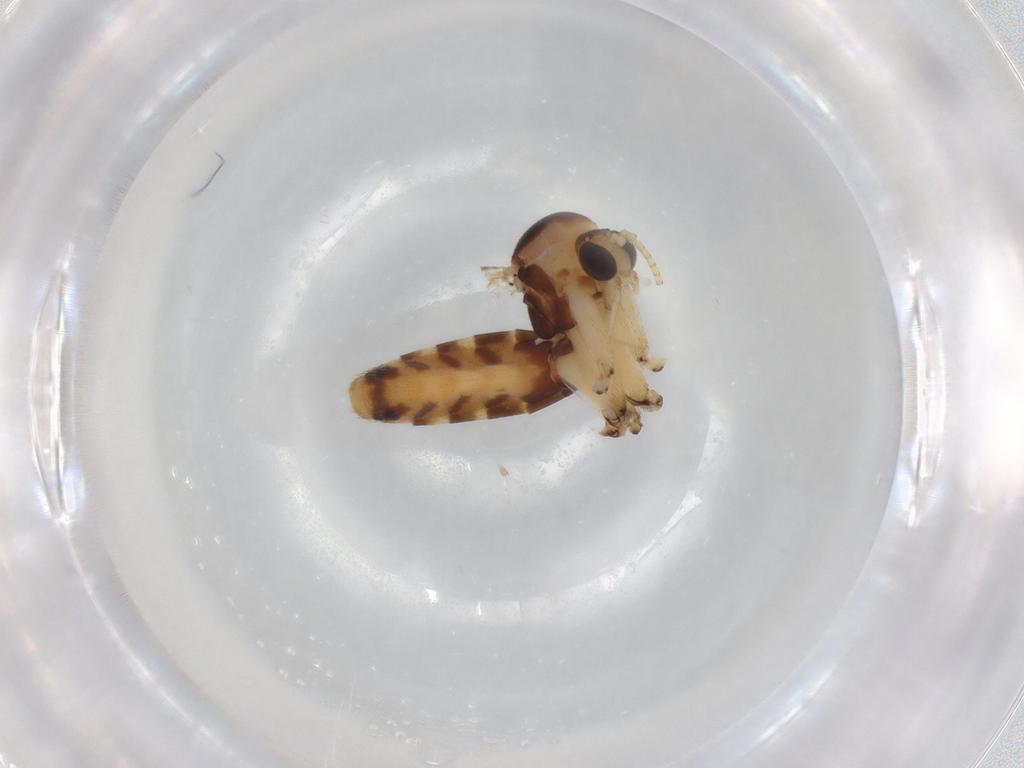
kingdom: Animalia
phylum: Arthropoda
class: Insecta
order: Diptera
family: Mycetophilidae
